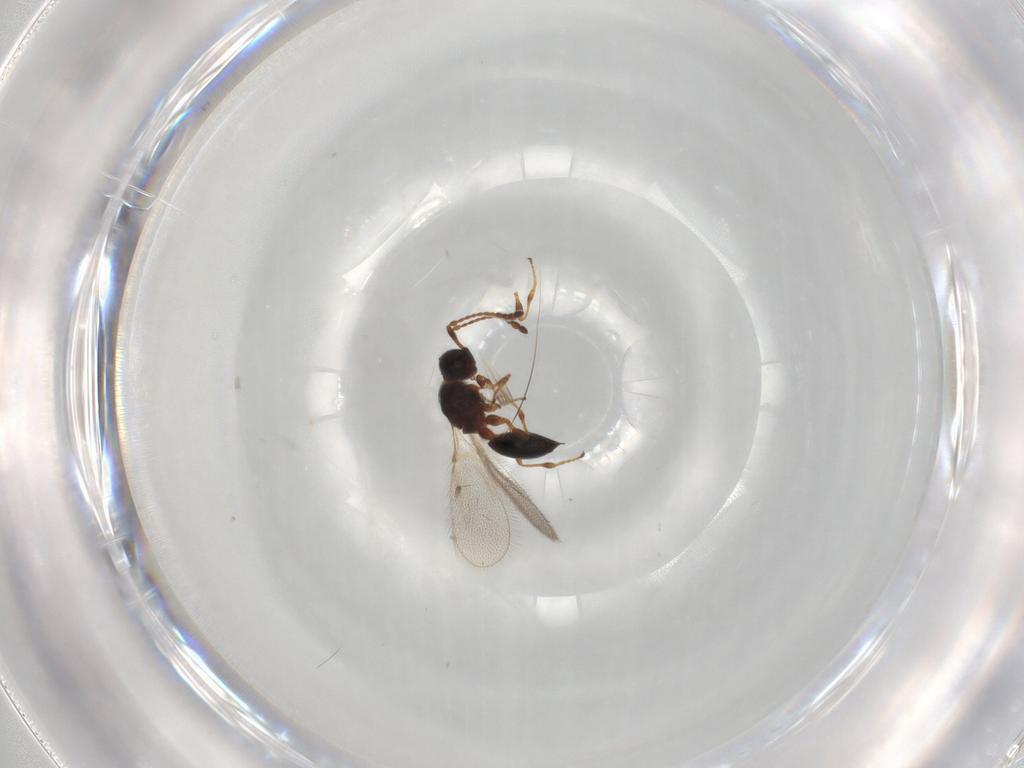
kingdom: Animalia
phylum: Arthropoda
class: Insecta
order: Hymenoptera
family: Diapriidae
